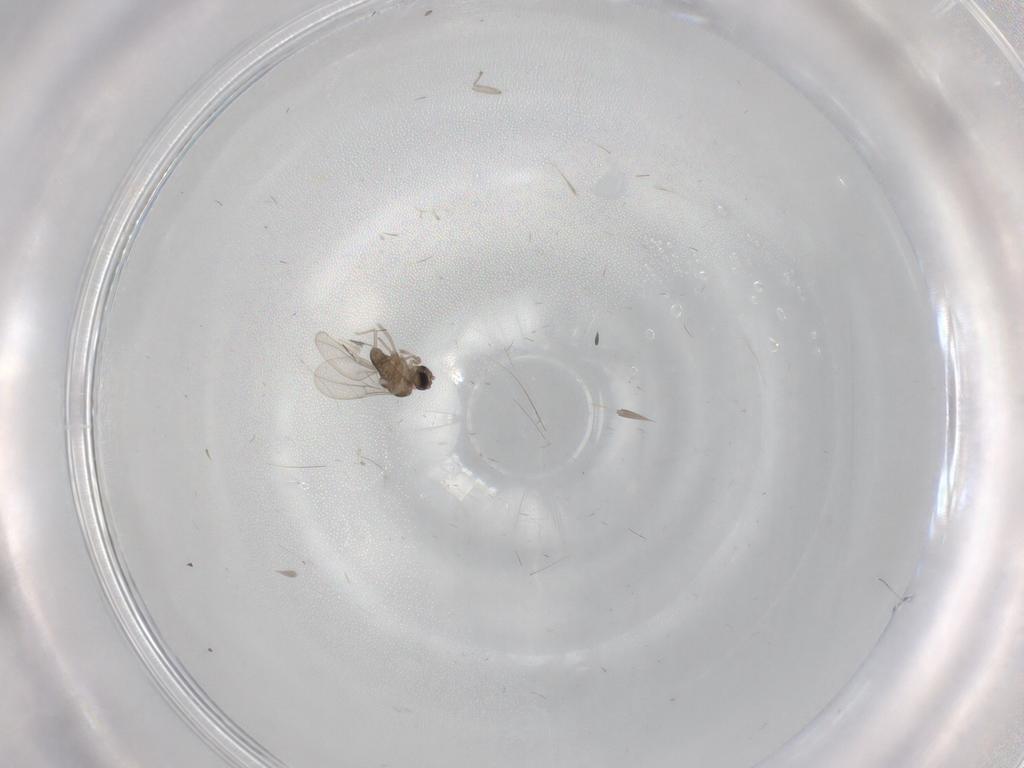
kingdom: Animalia
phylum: Arthropoda
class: Insecta
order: Diptera
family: Cecidomyiidae
